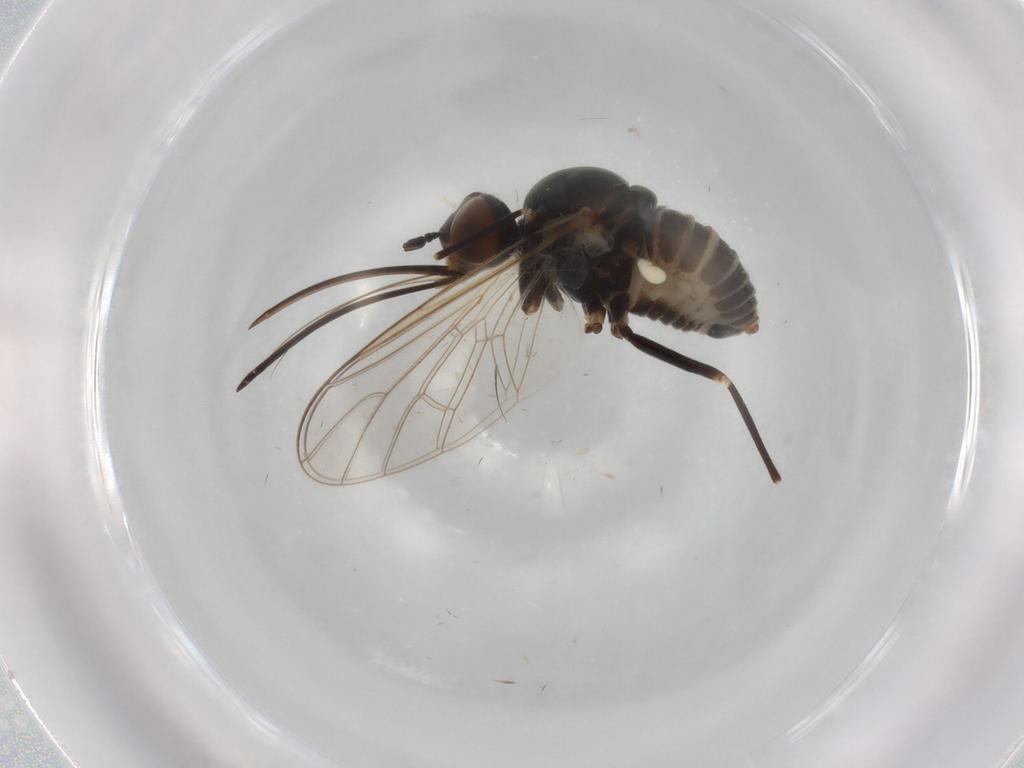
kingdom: Animalia
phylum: Arthropoda
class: Insecta
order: Diptera
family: Bombyliidae
